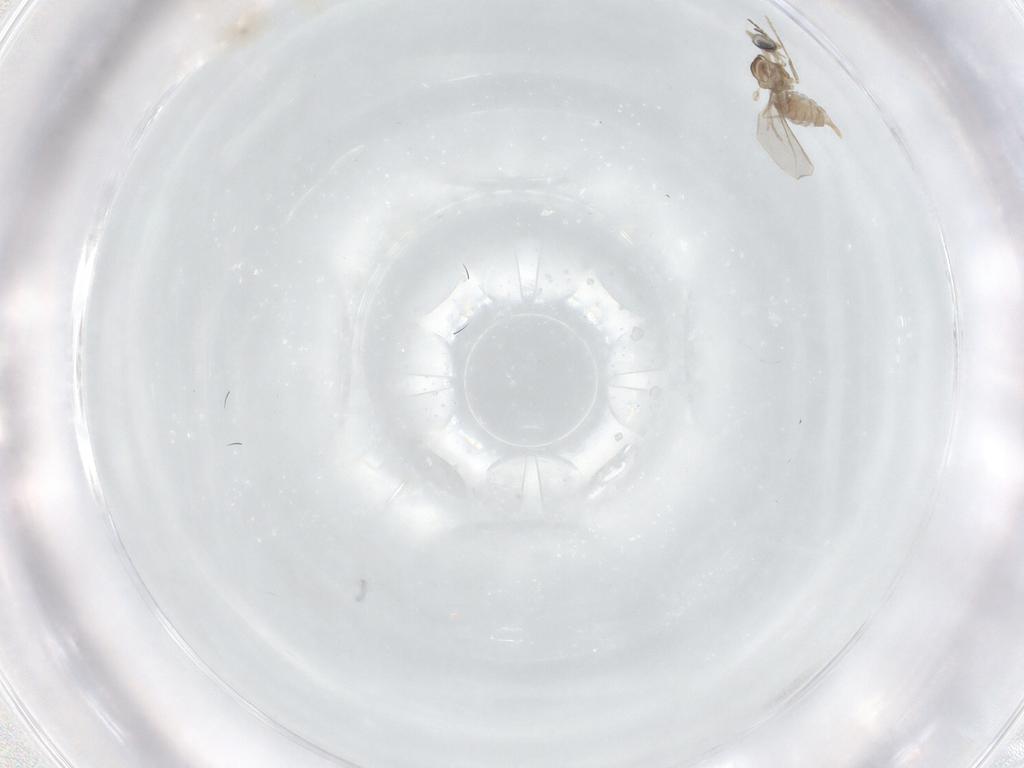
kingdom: Animalia
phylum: Arthropoda
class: Insecta
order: Diptera
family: Cecidomyiidae
